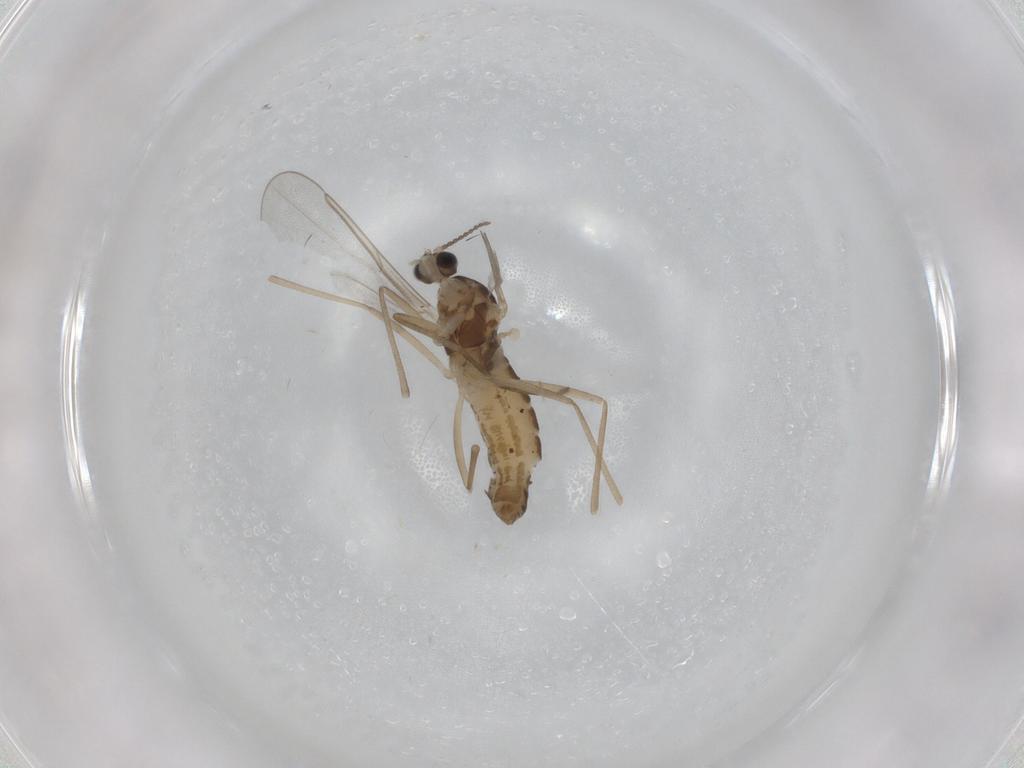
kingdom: Animalia
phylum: Arthropoda
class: Insecta
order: Diptera
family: Cecidomyiidae
